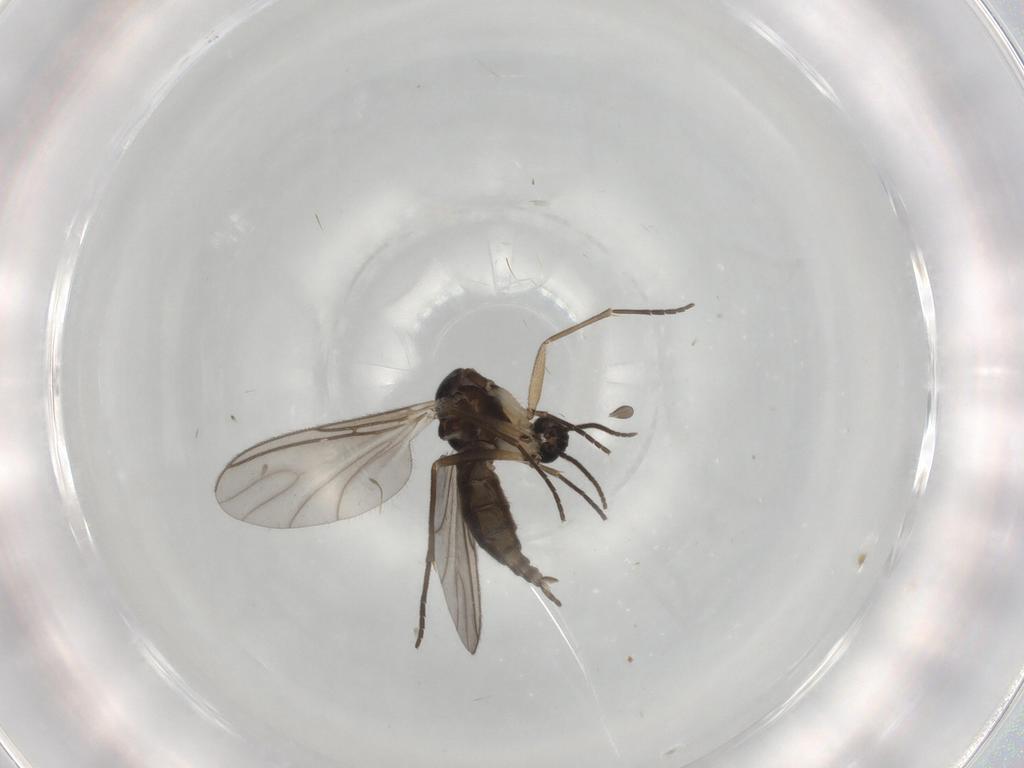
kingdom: Animalia
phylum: Arthropoda
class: Insecta
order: Diptera
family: Sciaridae
